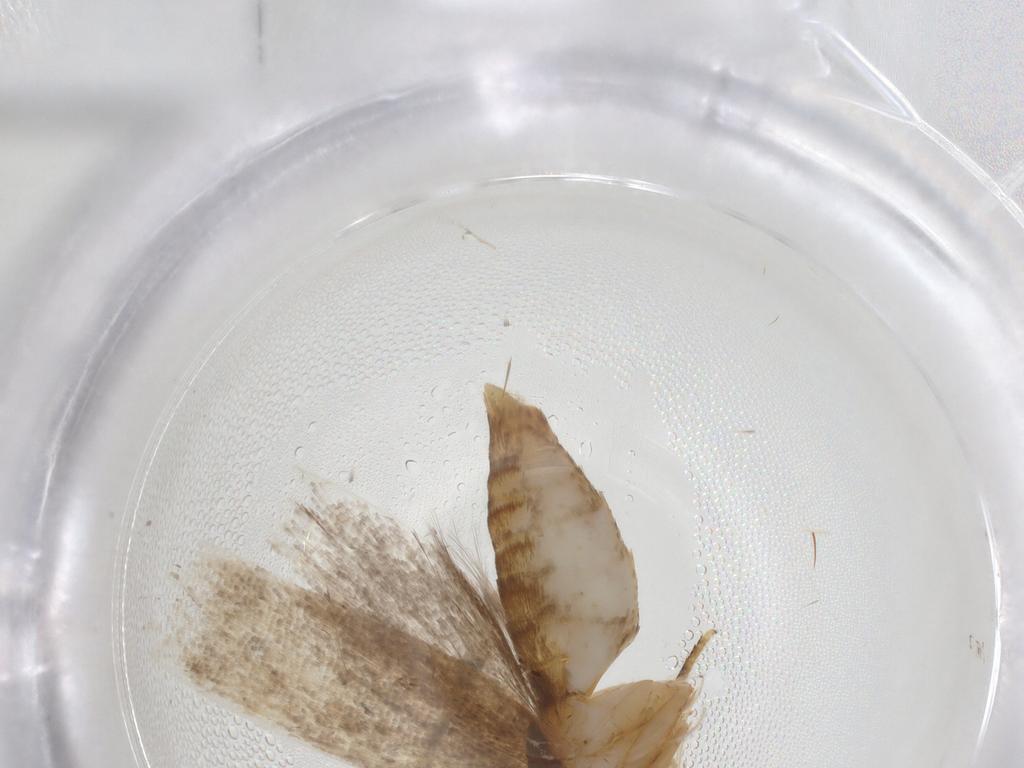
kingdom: Animalia
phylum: Arthropoda
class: Insecta
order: Lepidoptera
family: Oecophoridae
